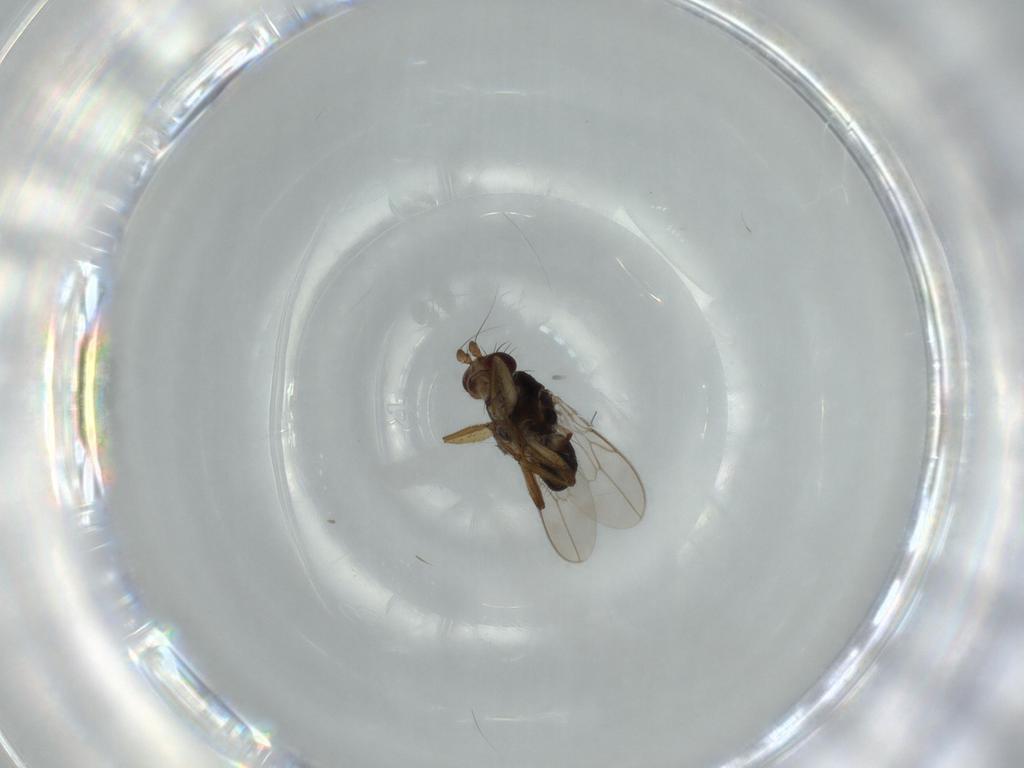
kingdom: Animalia
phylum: Arthropoda
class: Insecta
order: Diptera
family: Sphaeroceridae
